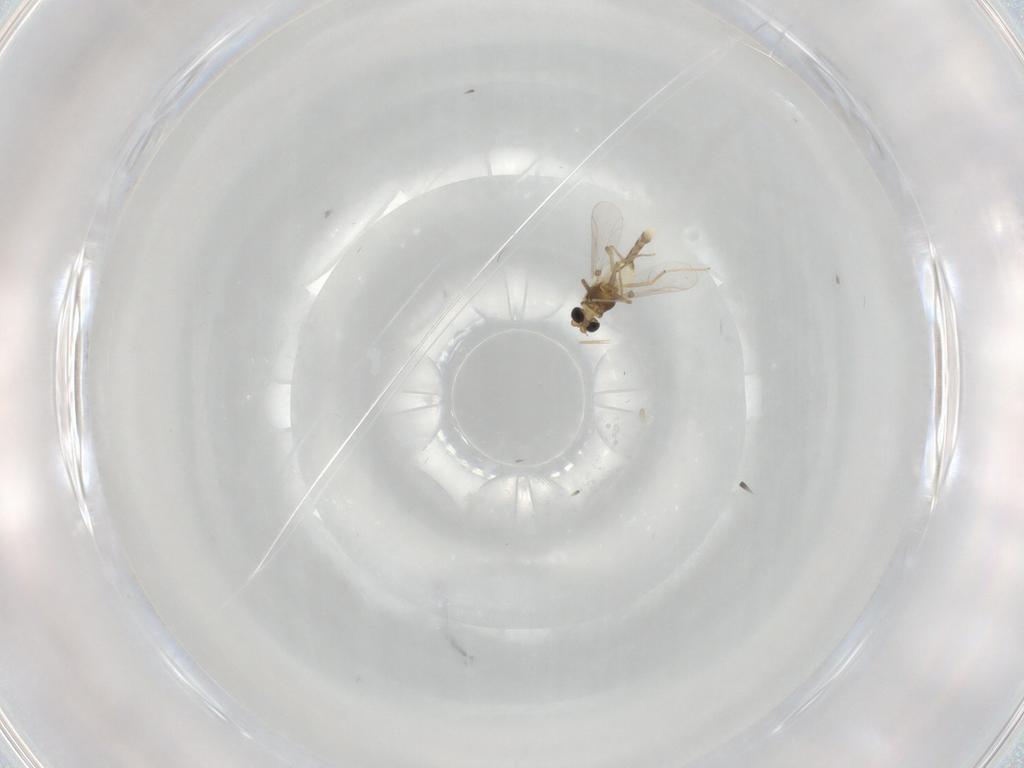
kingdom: Animalia
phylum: Arthropoda
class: Insecta
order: Diptera
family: Chironomidae
